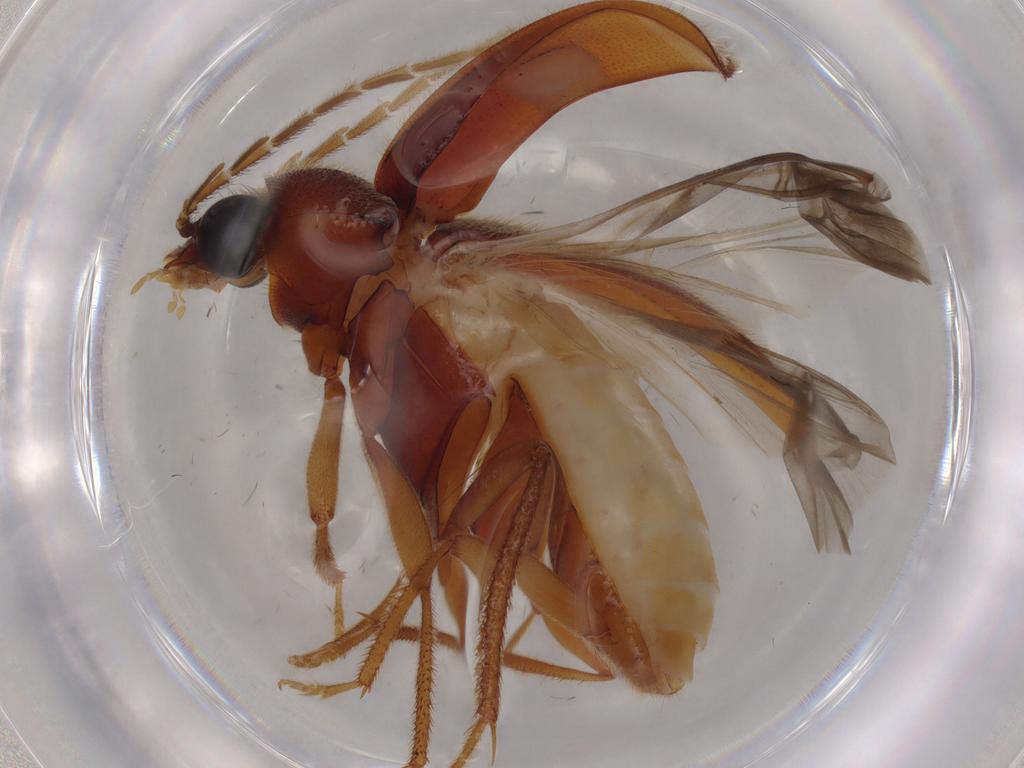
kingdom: Animalia
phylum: Arthropoda
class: Insecta
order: Coleoptera
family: Ptilodactylidae
